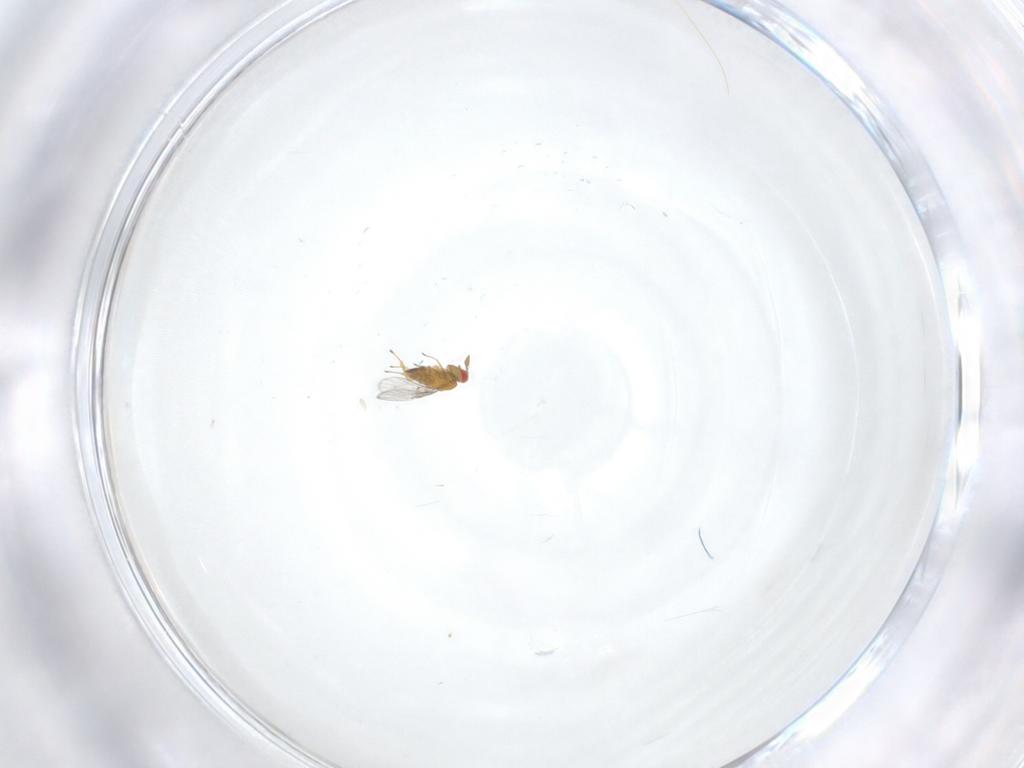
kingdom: Animalia
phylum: Arthropoda
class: Insecta
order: Hymenoptera
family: Trichogrammatidae
